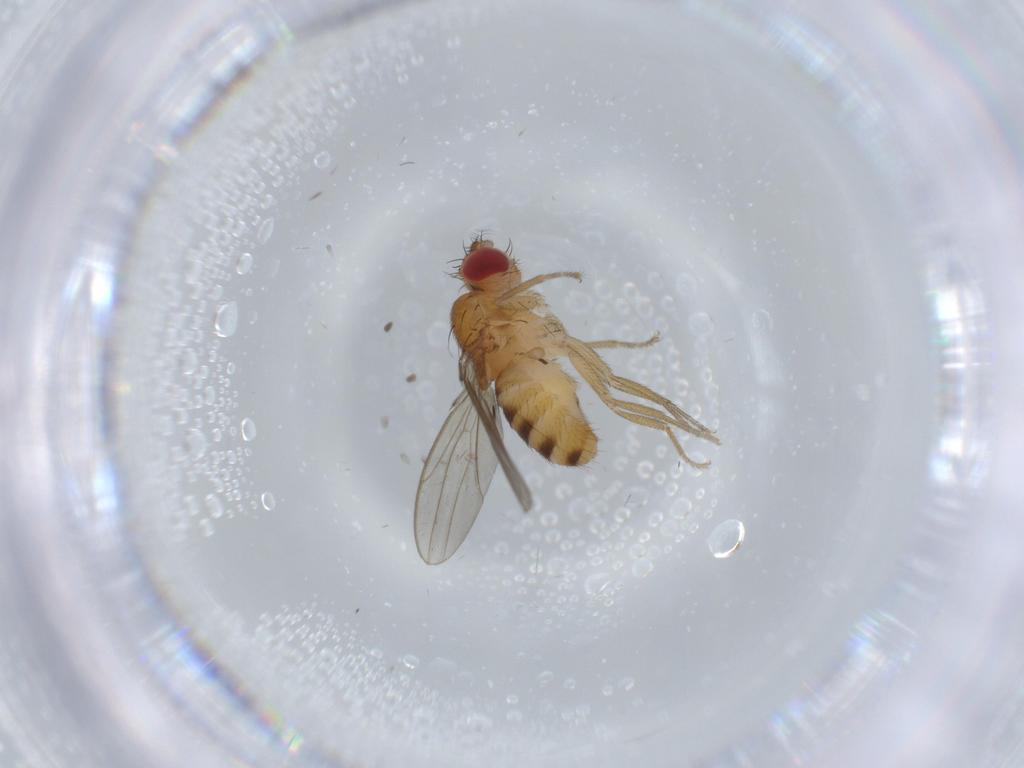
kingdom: Animalia
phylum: Arthropoda
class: Insecta
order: Diptera
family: Drosophilidae
